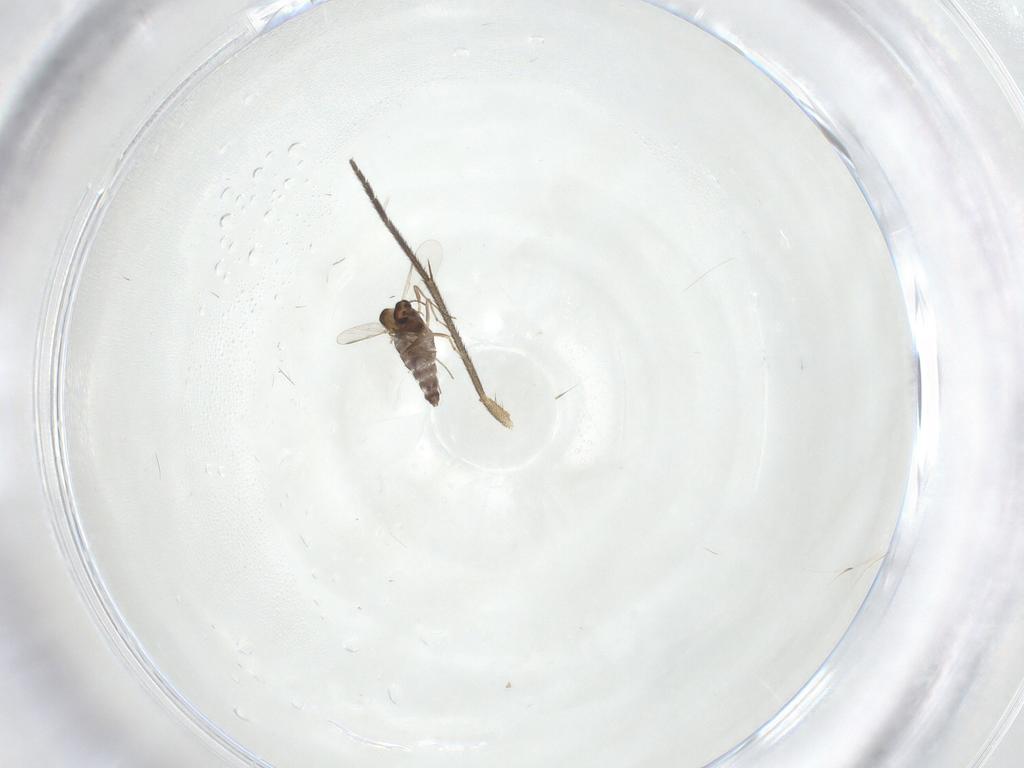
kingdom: Animalia
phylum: Arthropoda
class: Insecta
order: Diptera
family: Sciaridae
